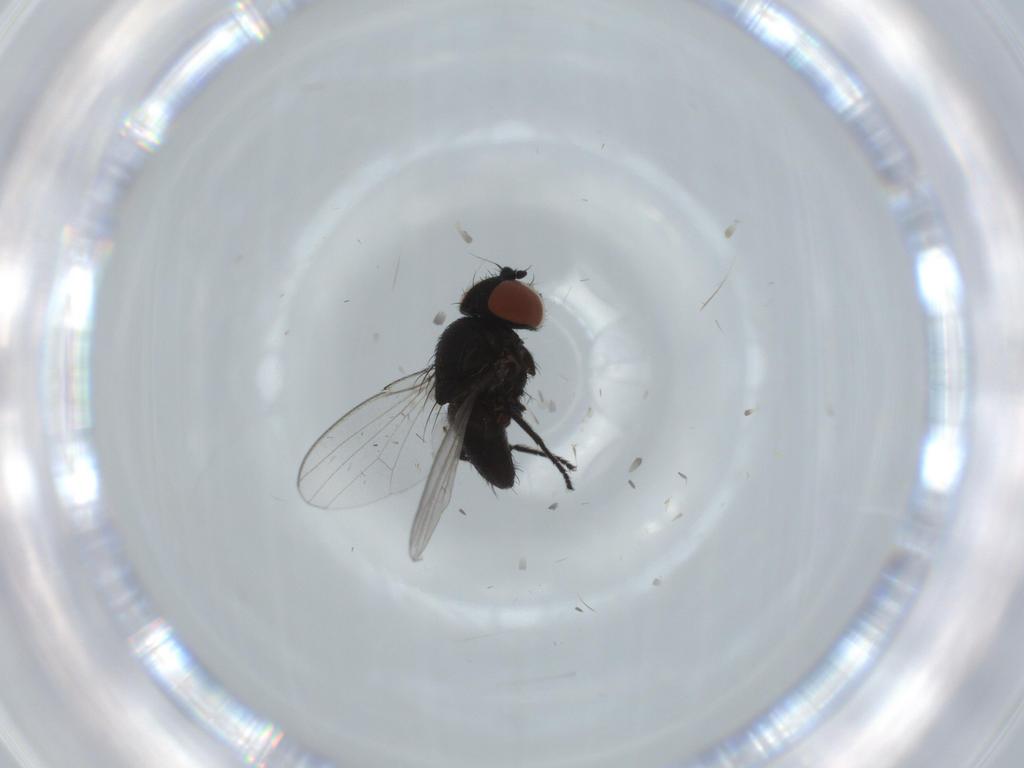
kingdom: Animalia
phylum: Arthropoda
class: Insecta
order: Diptera
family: Milichiidae
